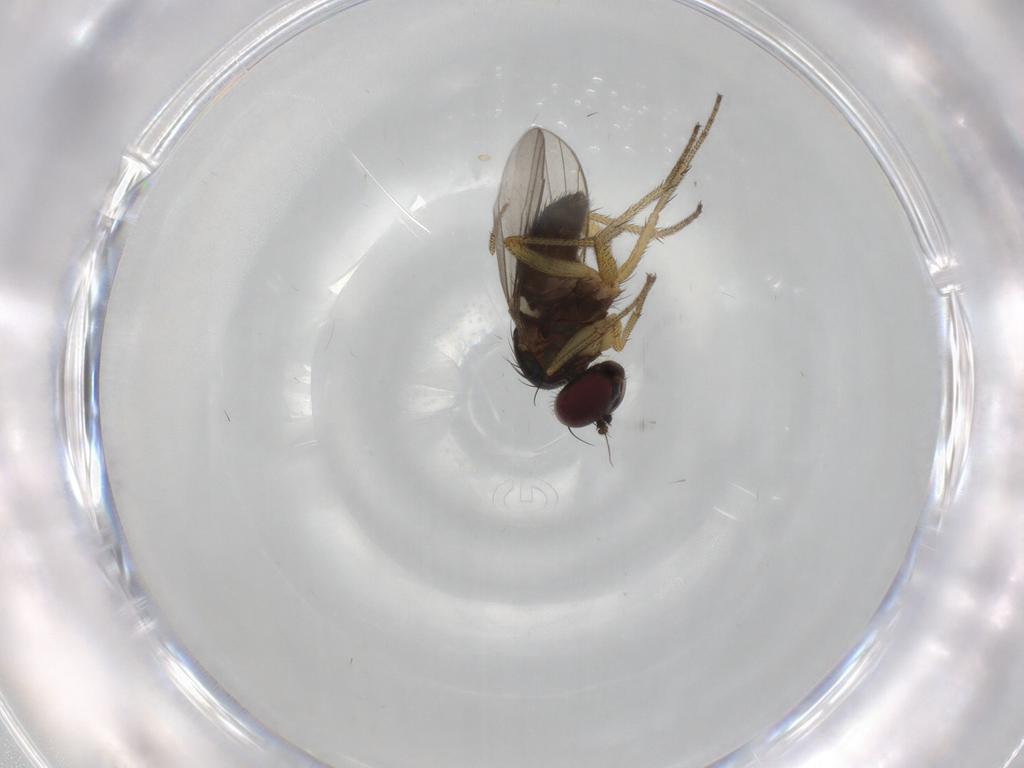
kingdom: Animalia
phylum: Arthropoda
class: Insecta
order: Diptera
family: Dolichopodidae
